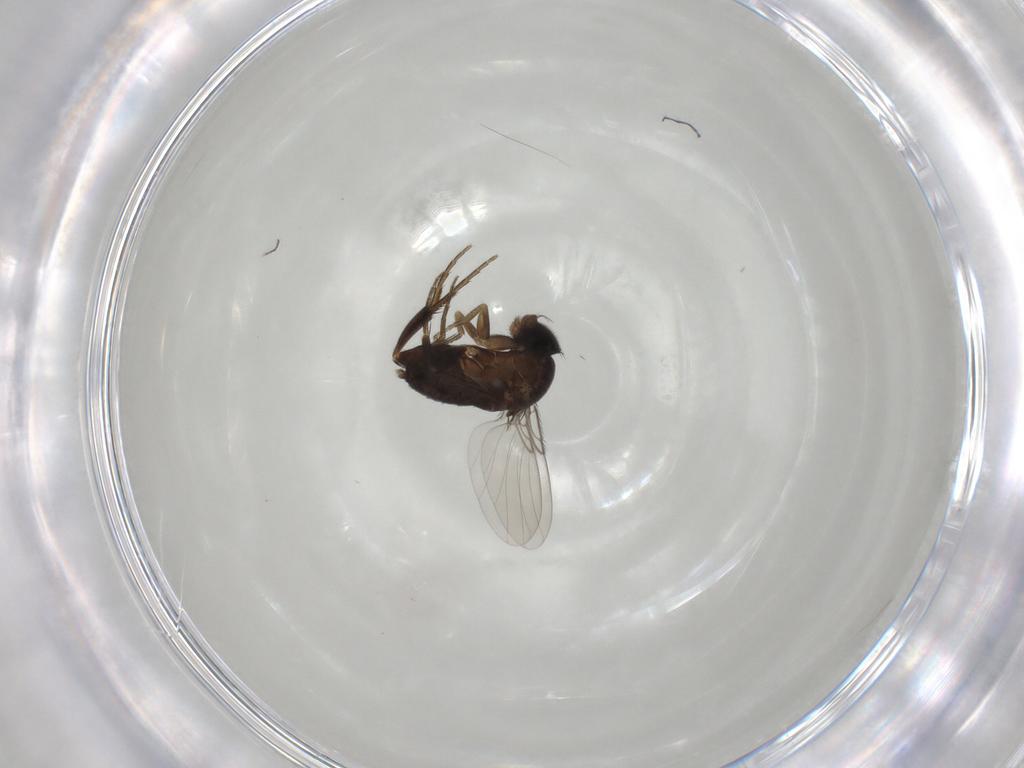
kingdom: Animalia
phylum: Arthropoda
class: Insecta
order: Diptera
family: Phoridae
